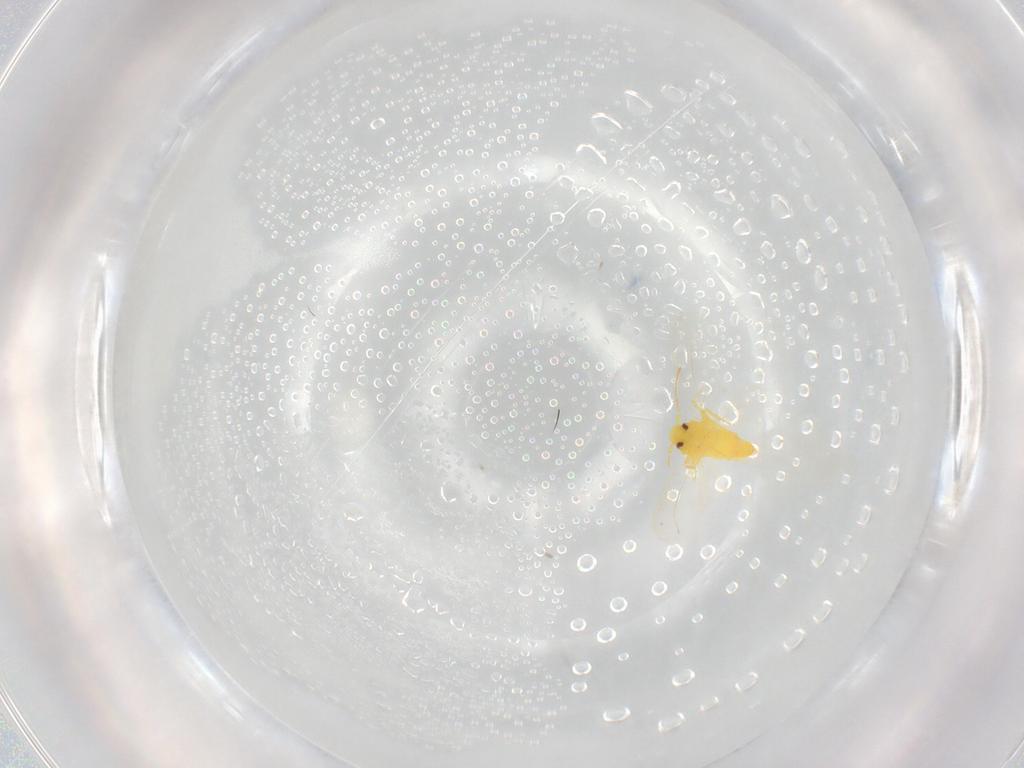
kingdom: Animalia
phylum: Arthropoda
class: Insecta
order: Hemiptera
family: Aleyrodidae
